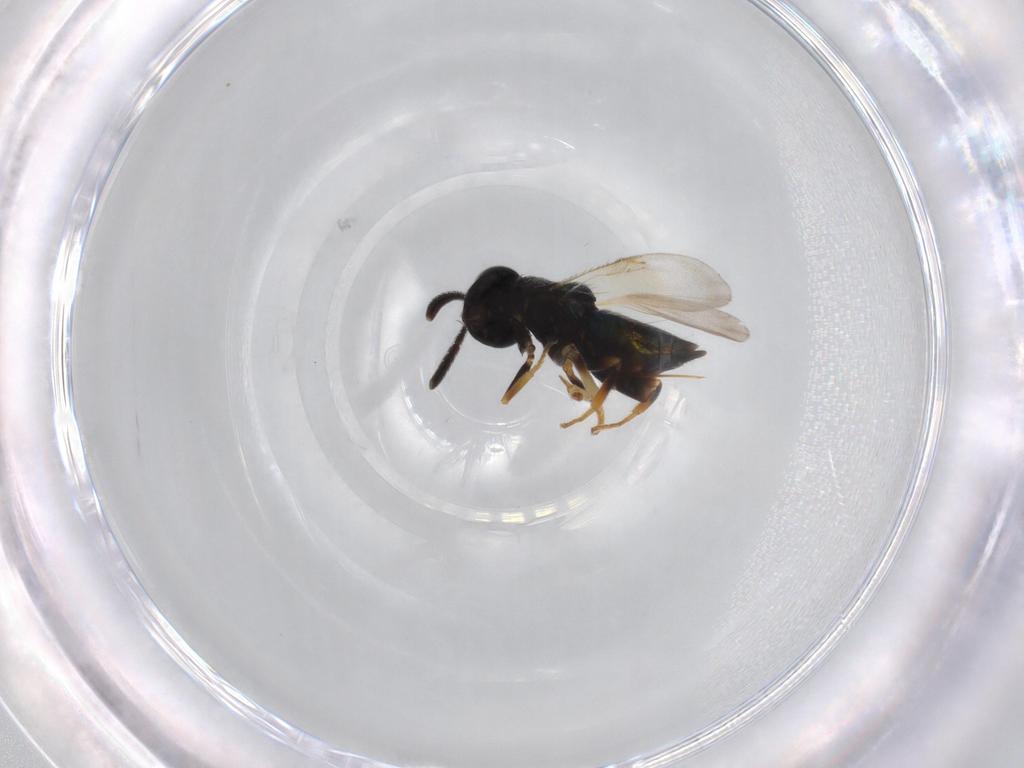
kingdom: Animalia
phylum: Arthropoda
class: Insecta
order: Hymenoptera
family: Encyrtidae
